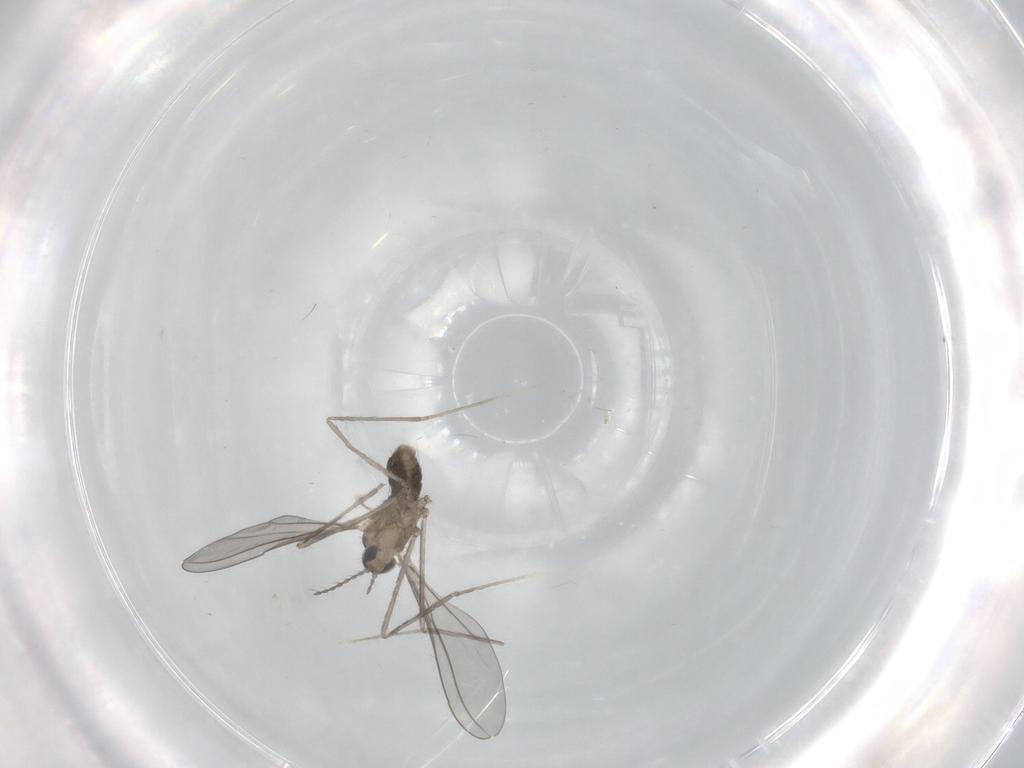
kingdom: Animalia
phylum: Arthropoda
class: Insecta
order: Diptera
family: Cecidomyiidae
